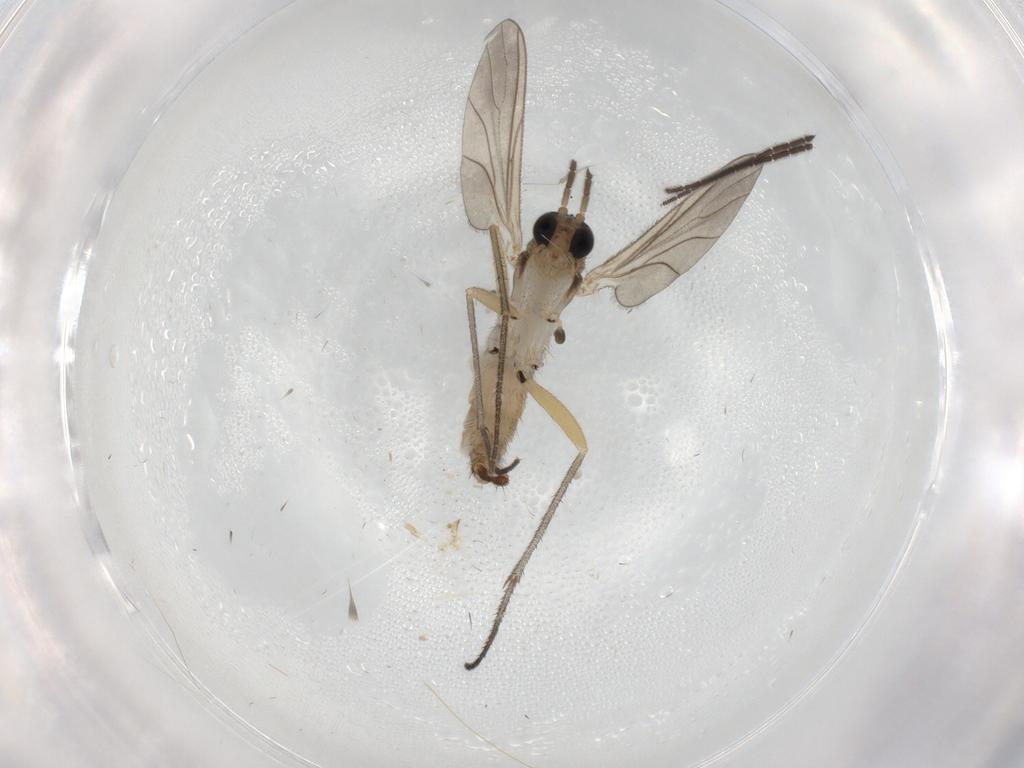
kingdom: Animalia
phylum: Arthropoda
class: Insecta
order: Diptera
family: Phoridae
